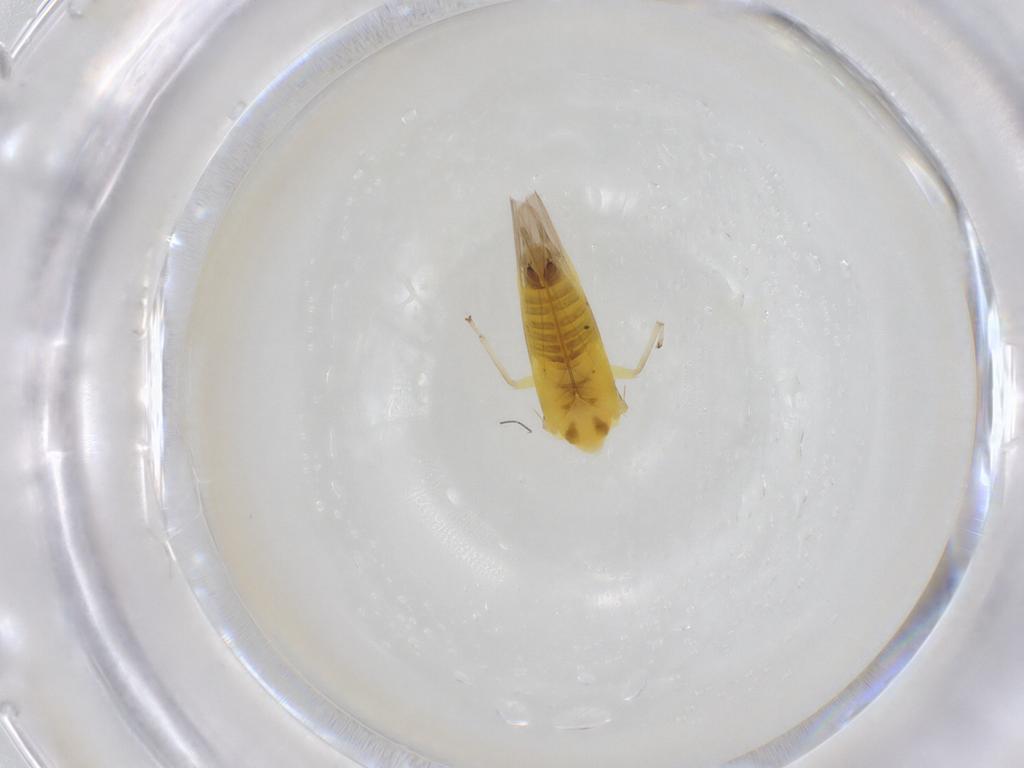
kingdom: Animalia
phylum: Arthropoda
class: Insecta
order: Hemiptera
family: Cicadellidae
